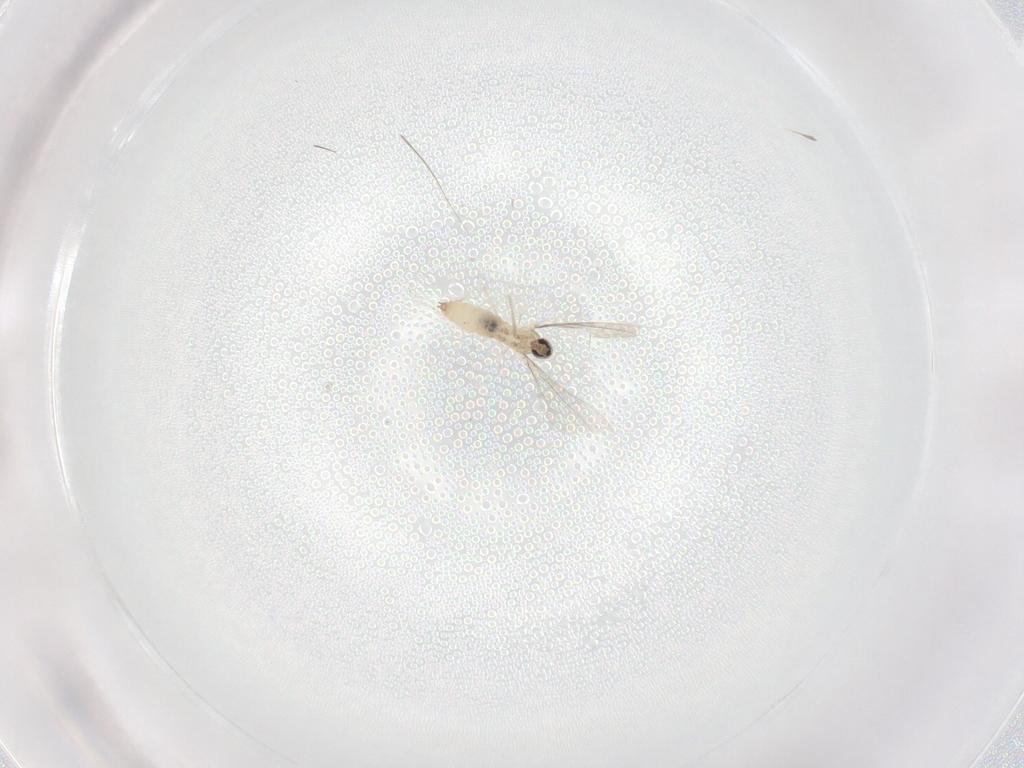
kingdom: Animalia
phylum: Arthropoda
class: Insecta
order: Diptera
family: Cecidomyiidae
